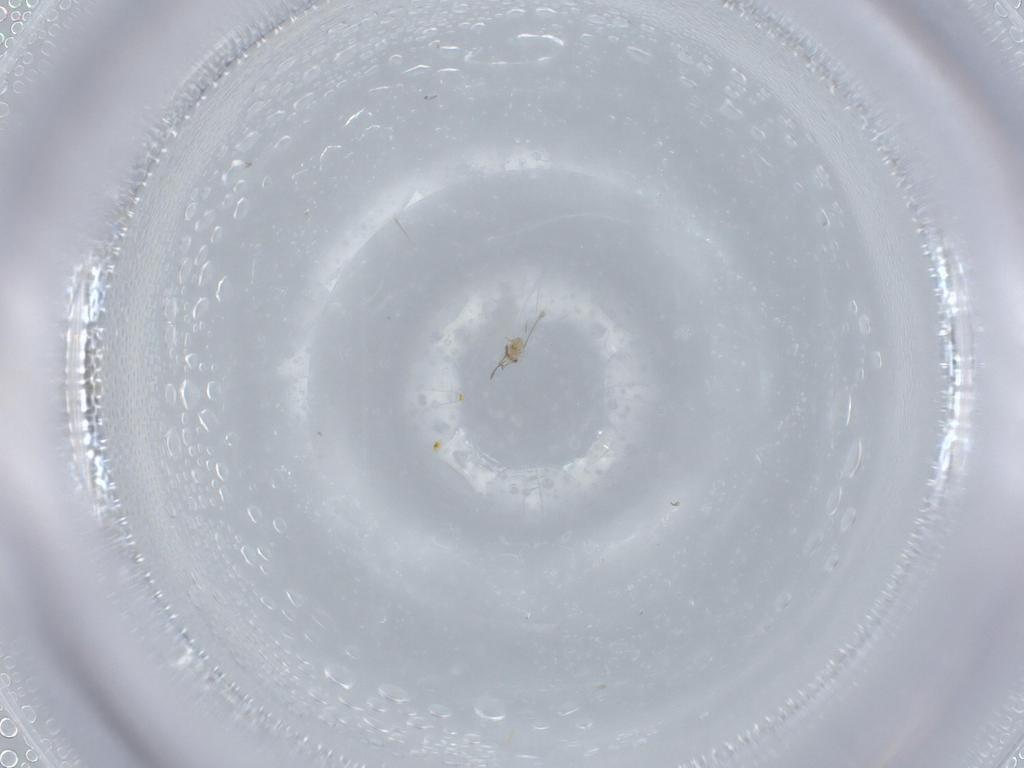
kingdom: Animalia
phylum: Arthropoda
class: Insecta
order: Hymenoptera
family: Mymaridae
